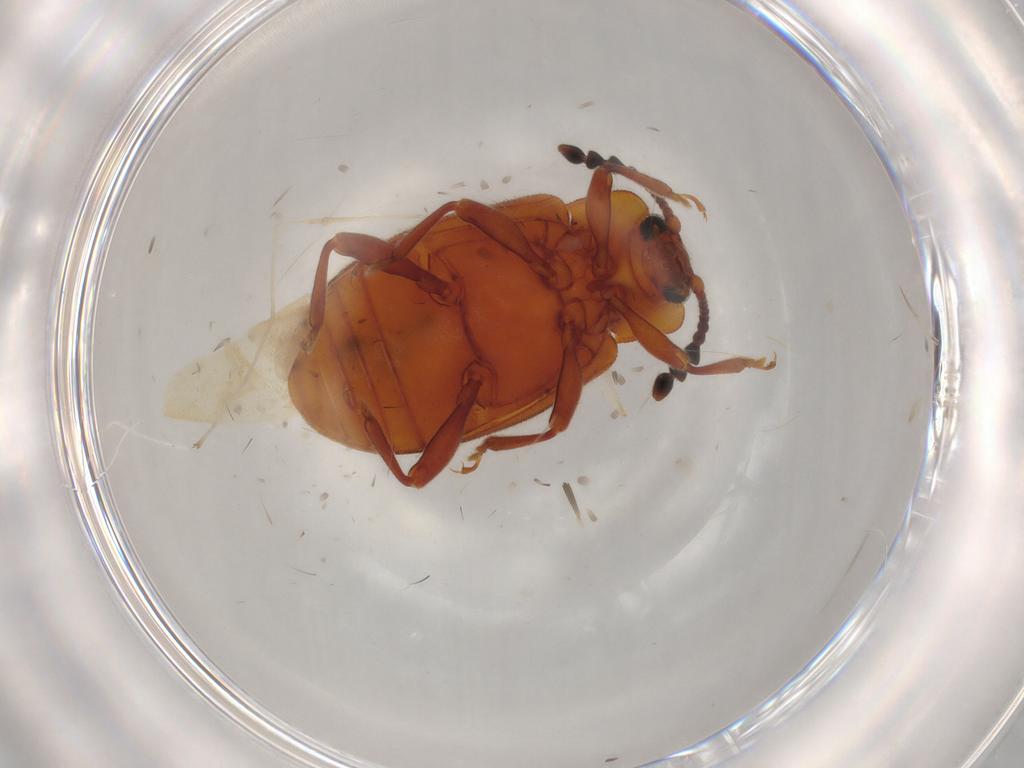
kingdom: Animalia
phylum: Arthropoda
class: Insecta
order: Coleoptera
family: Endomychidae
